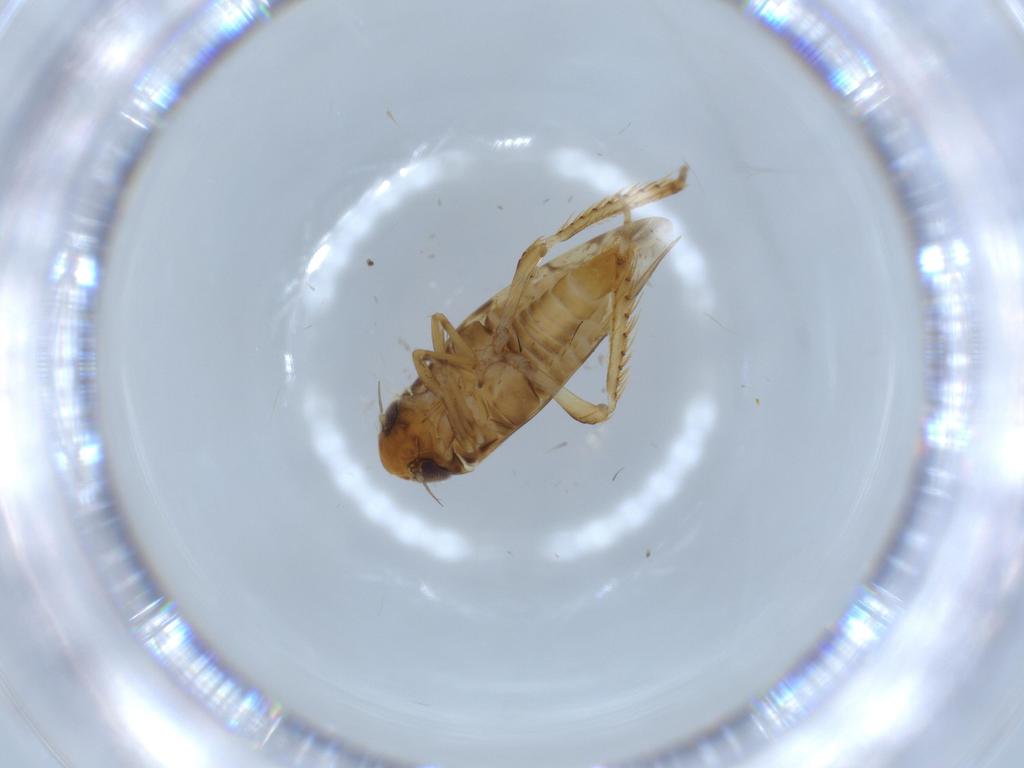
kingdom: Animalia
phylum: Arthropoda
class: Insecta
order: Hemiptera
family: Cicadellidae
